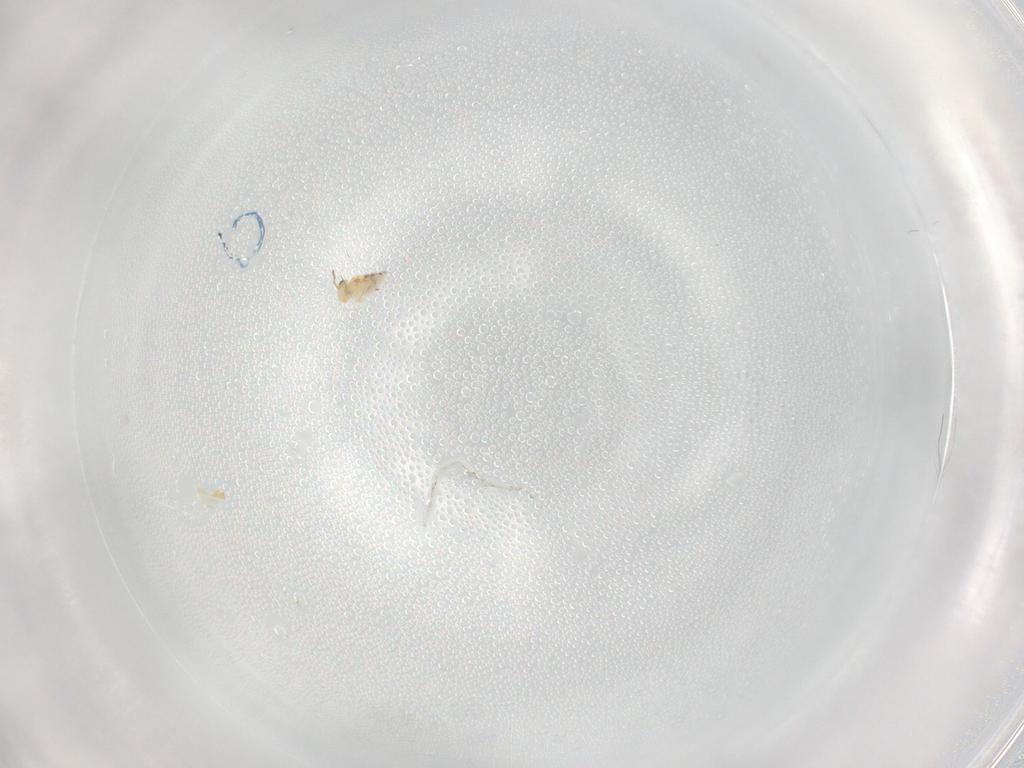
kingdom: Animalia
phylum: Arthropoda
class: Collembola
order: Symphypleona
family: Bourletiellidae
